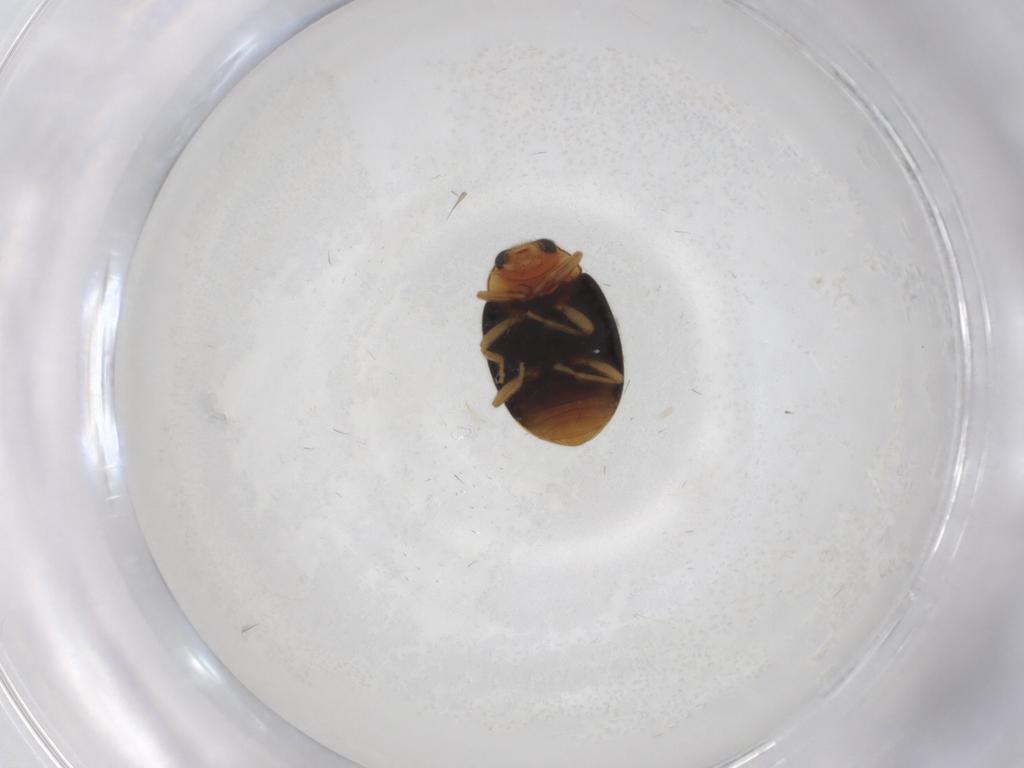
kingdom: Animalia
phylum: Arthropoda
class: Insecta
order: Coleoptera
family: Coccinellidae
